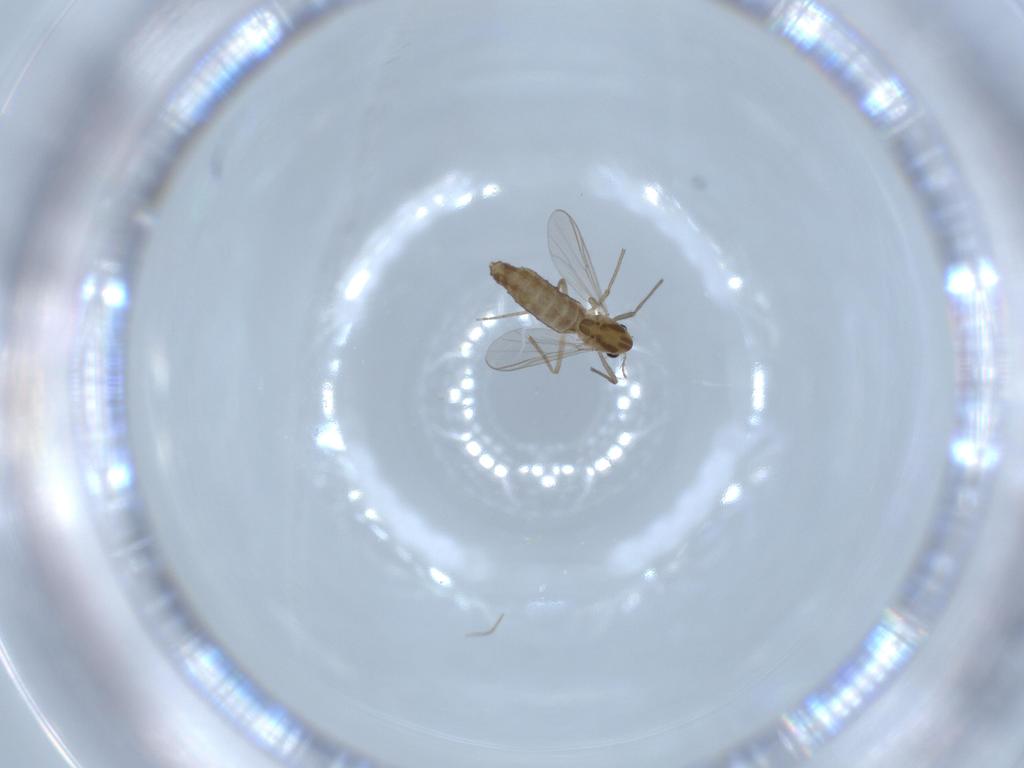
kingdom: Animalia
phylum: Arthropoda
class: Insecta
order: Diptera
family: Chironomidae
